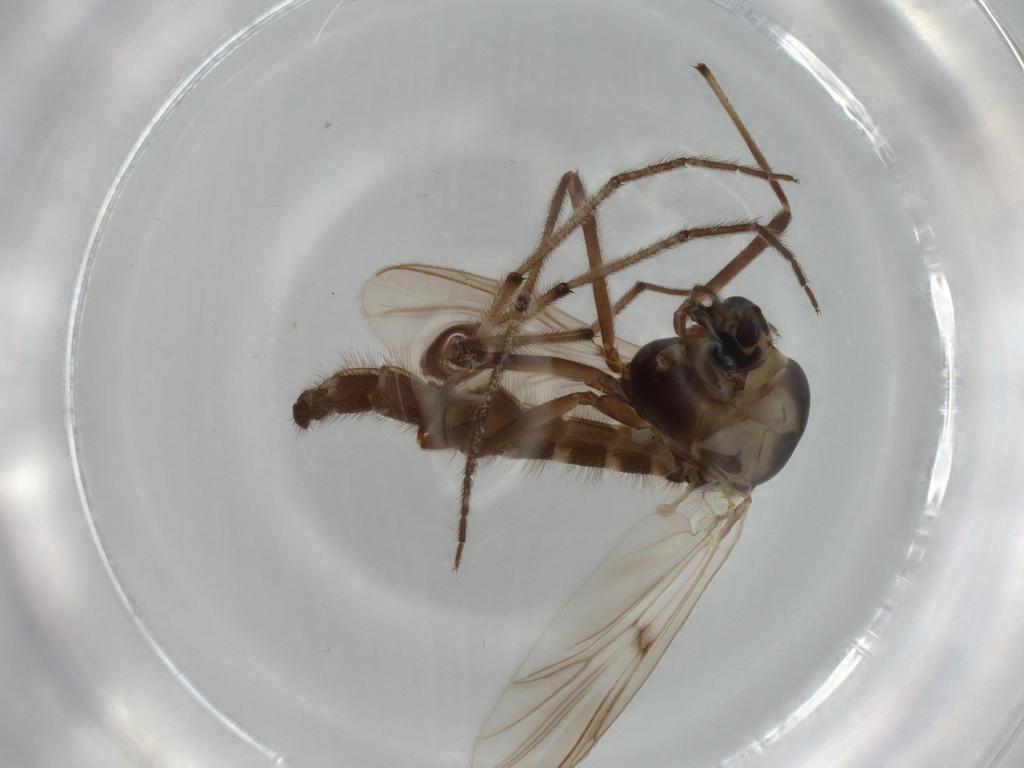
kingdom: Animalia
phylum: Arthropoda
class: Insecta
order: Diptera
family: Chironomidae
